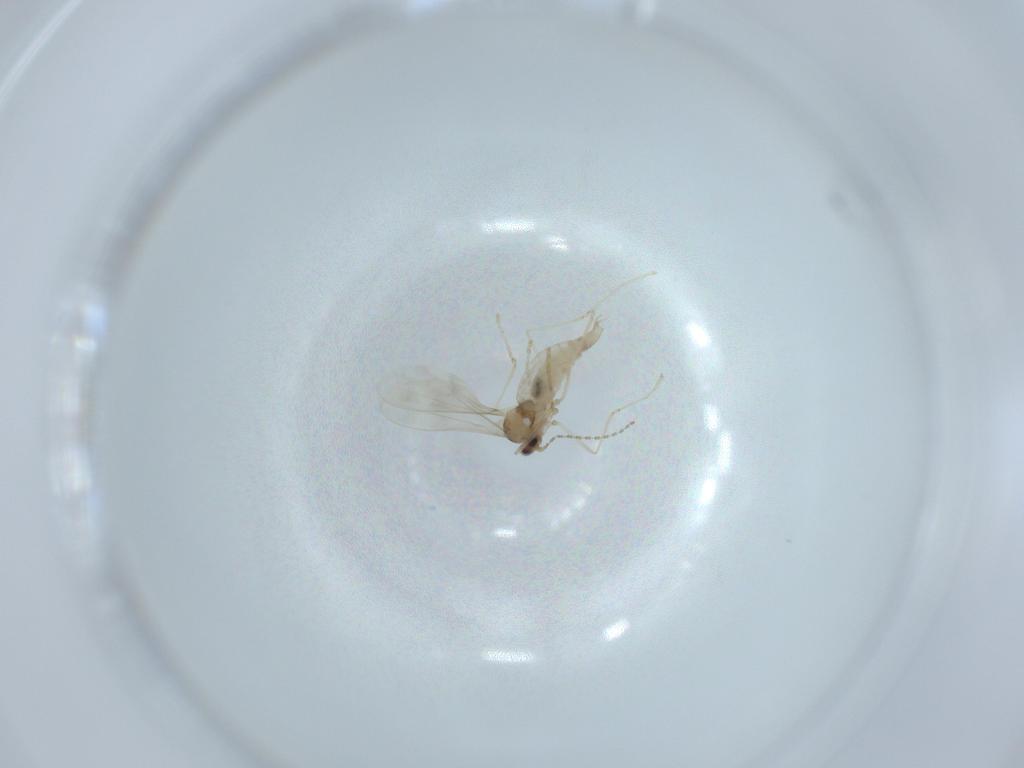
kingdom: Animalia
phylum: Arthropoda
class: Insecta
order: Diptera
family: Cecidomyiidae
